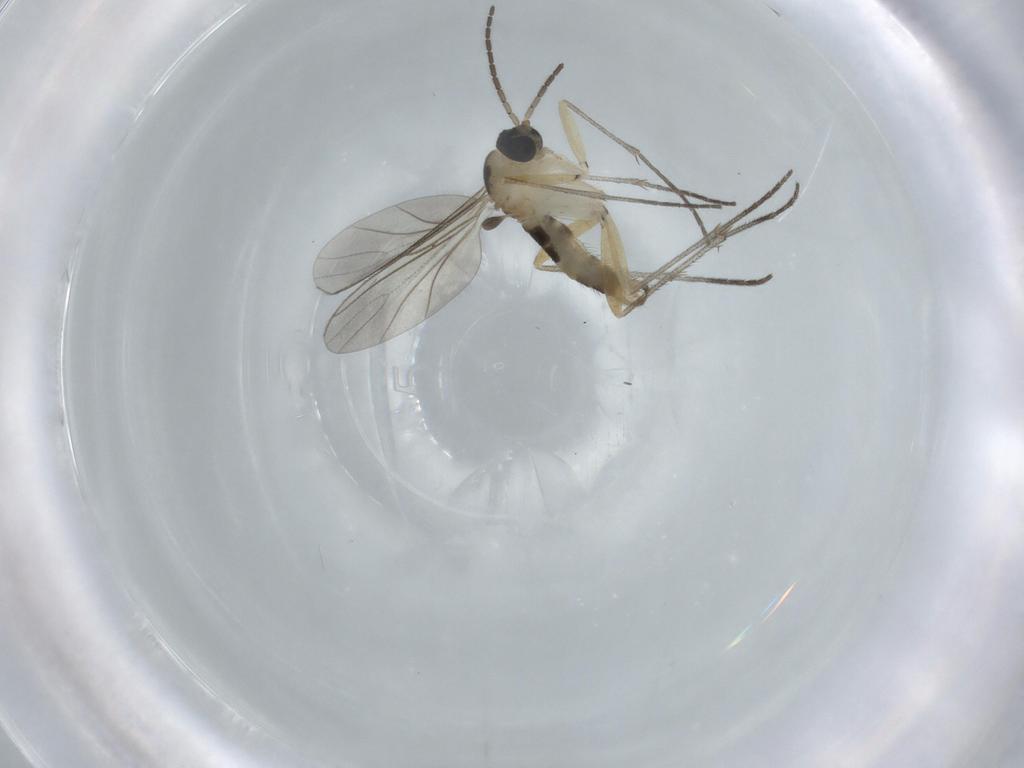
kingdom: Animalia
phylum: Arthropoda
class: Insecta
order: Diptera
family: Sciaridae
